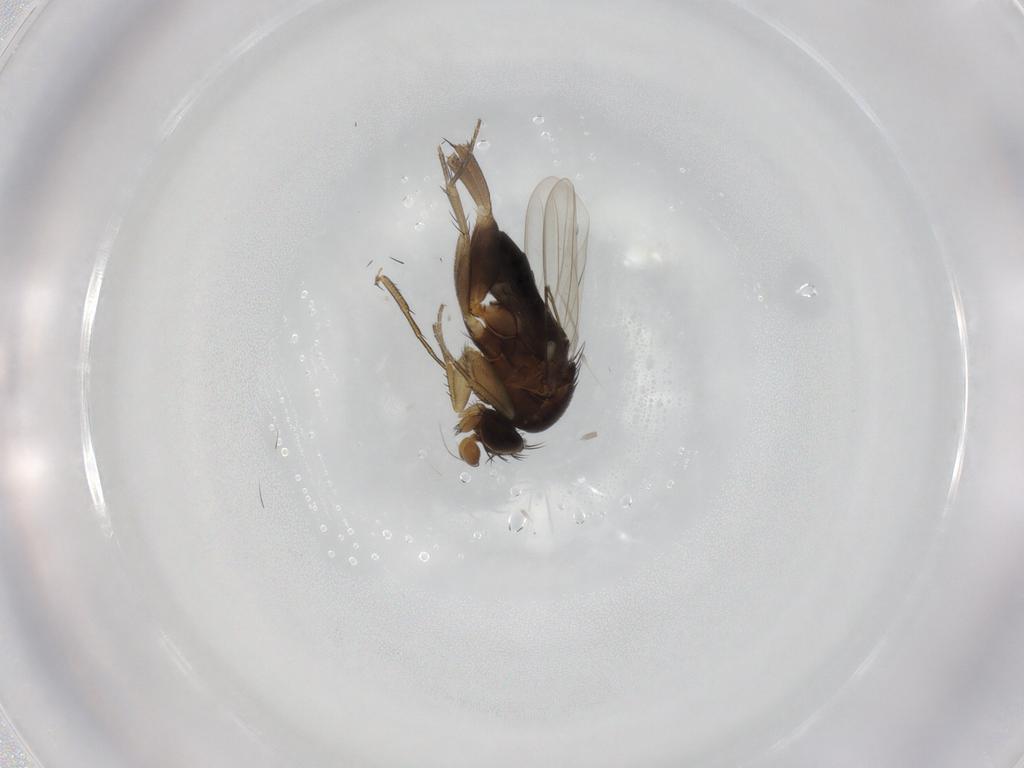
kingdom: Animalia
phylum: Arthropoda
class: Insecta
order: Diptera
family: Phoridae
